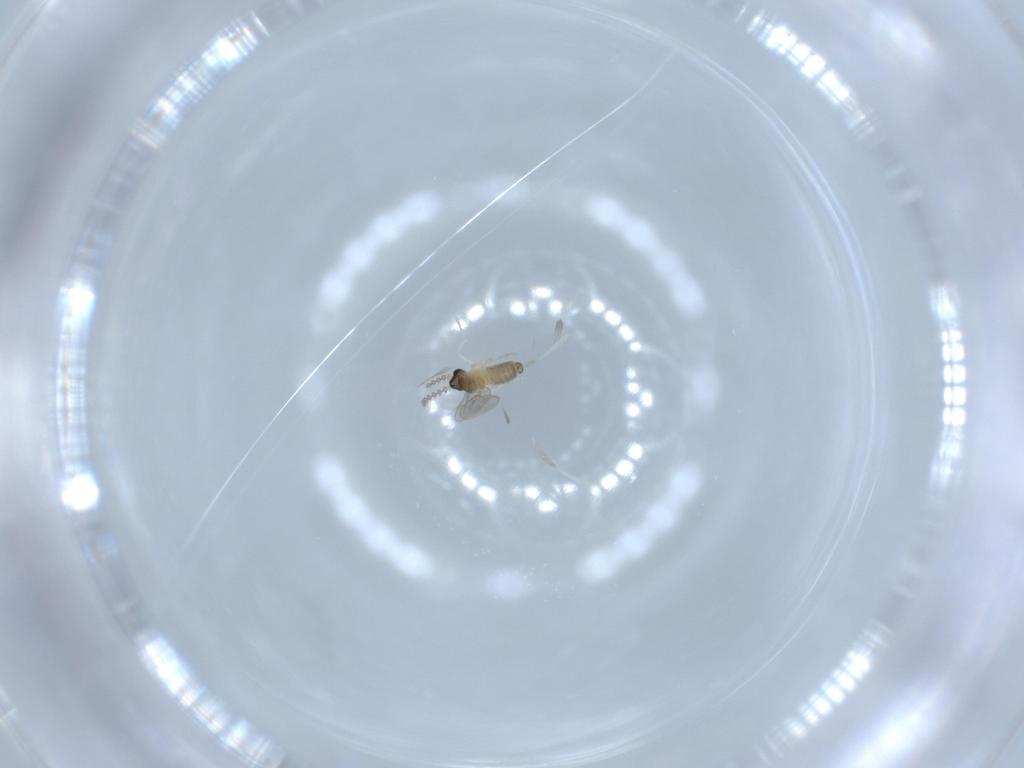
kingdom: Animalia
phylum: Arthropoda
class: Insecta
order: Diptera
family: Cecidomyiidae
